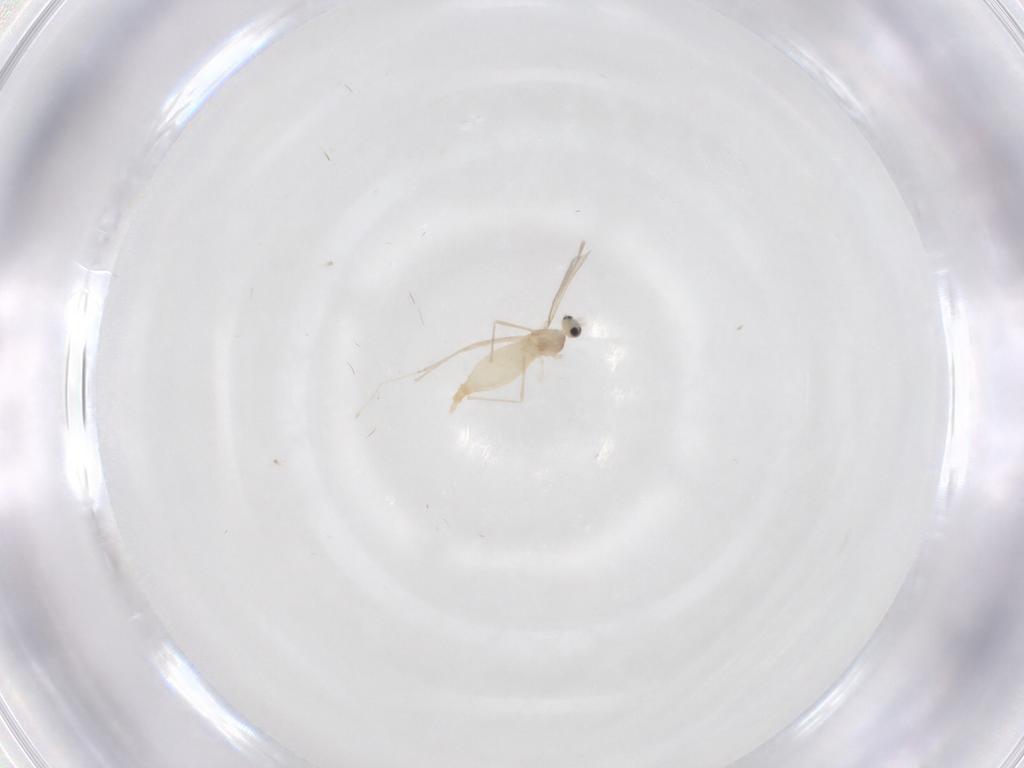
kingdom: Animalia
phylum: Arthropoda
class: Insecta
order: Diptera
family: Cecidomyiidae
